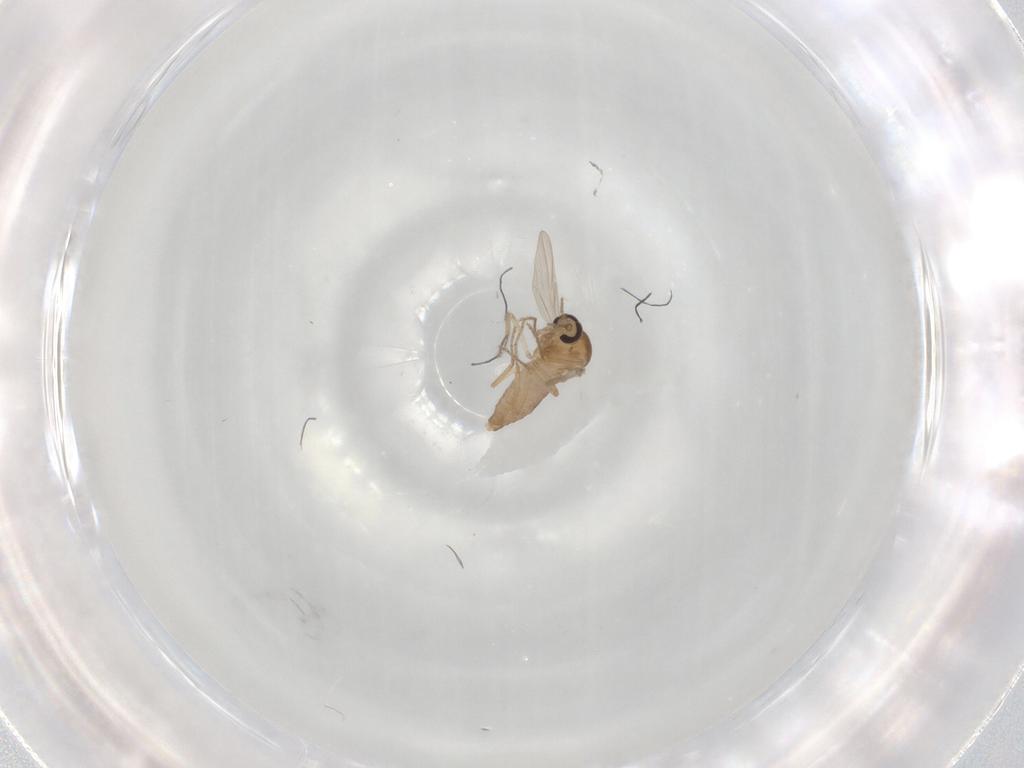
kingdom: Animalia
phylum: Arthropoda
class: Insecta
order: Diptera
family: Ceratopogonidae
